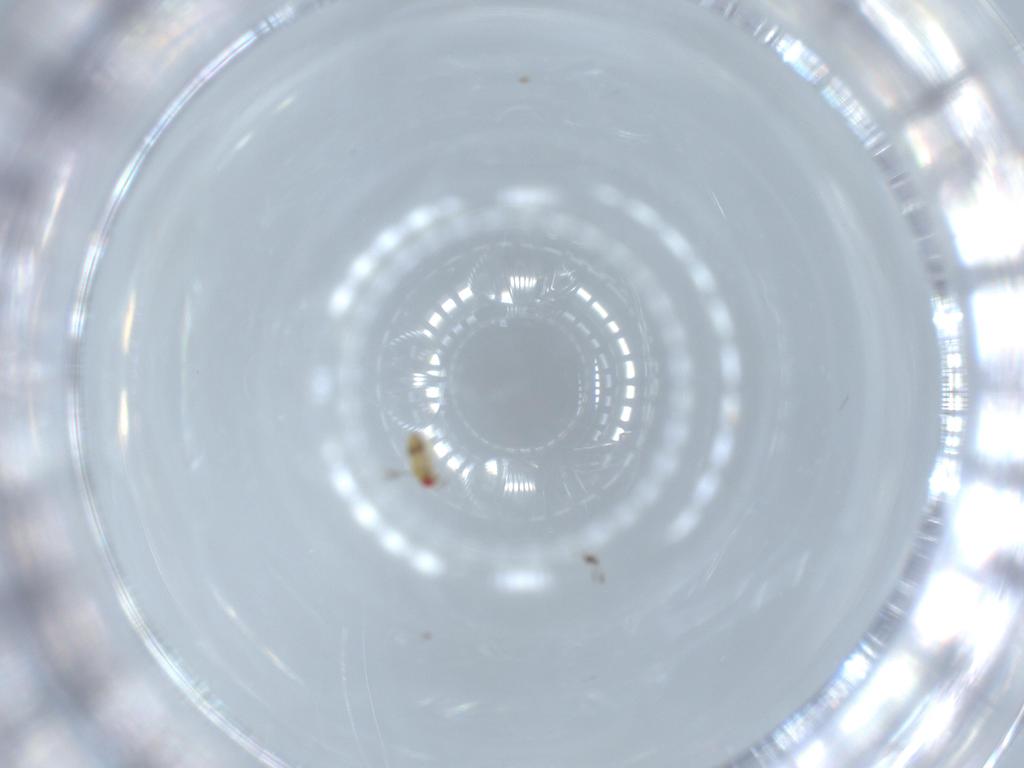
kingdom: Animalia
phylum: Arthropoda
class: Insecta
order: Hymenoptera
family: Trichogrammatidae
